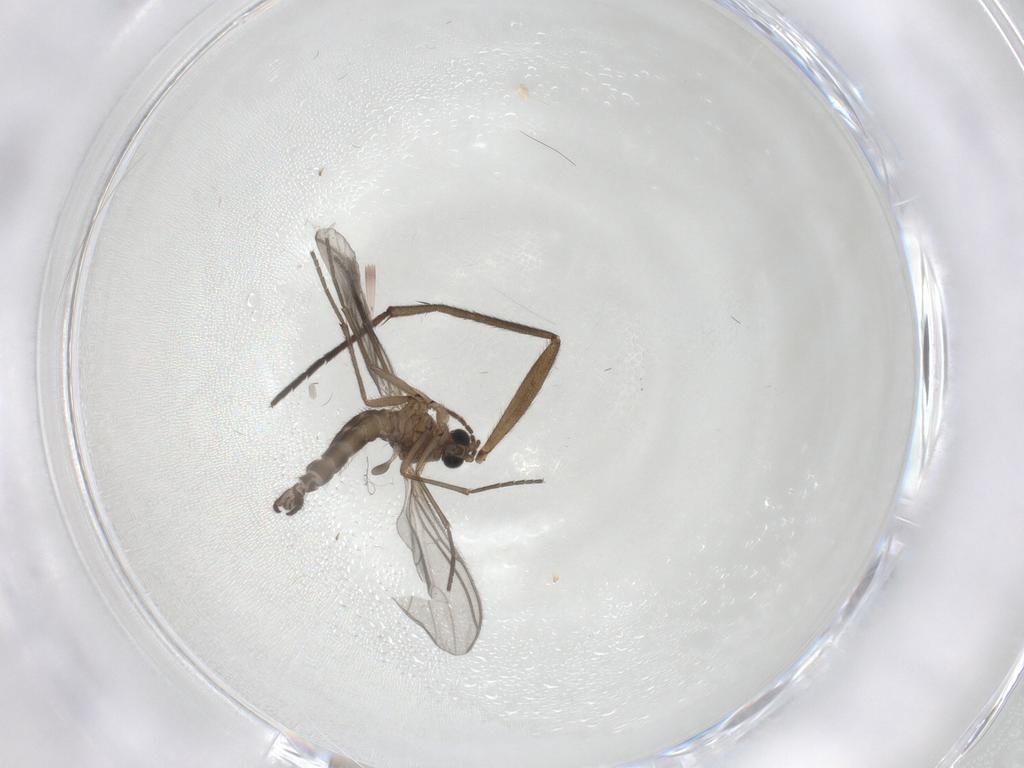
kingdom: Animalia
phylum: Arthropoda
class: Insecta
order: Diptera
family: Sciaridae
